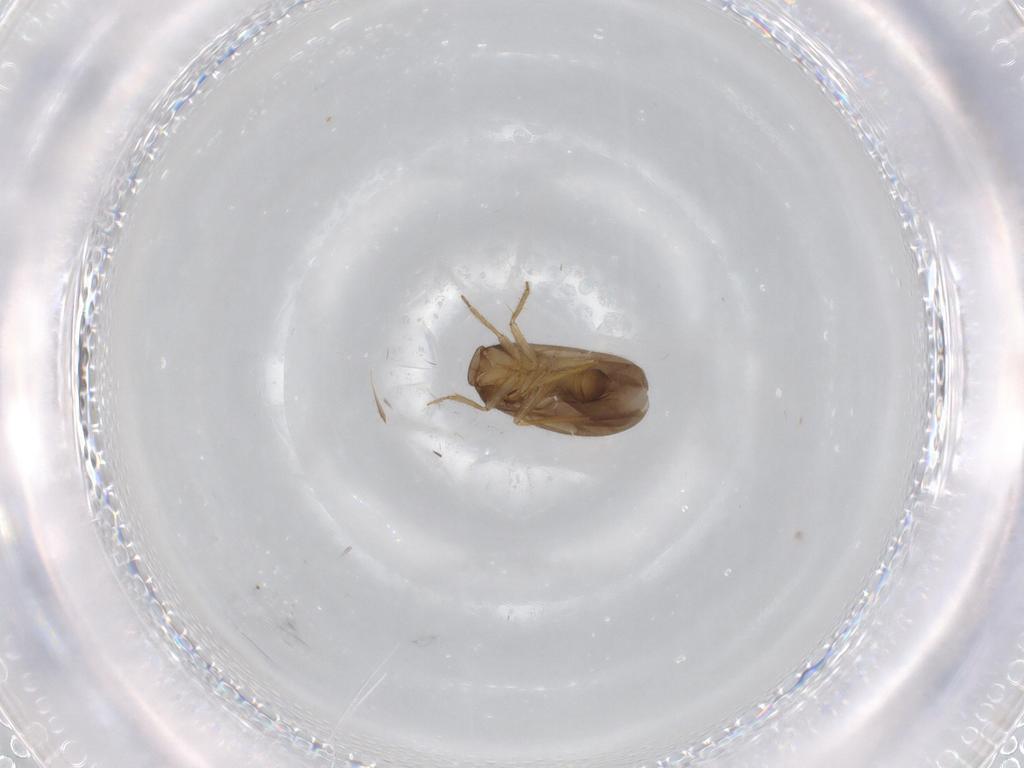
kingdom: Animalia
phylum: Arthropoda
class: Insecta
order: Hemiptera
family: Ceratocombidae
